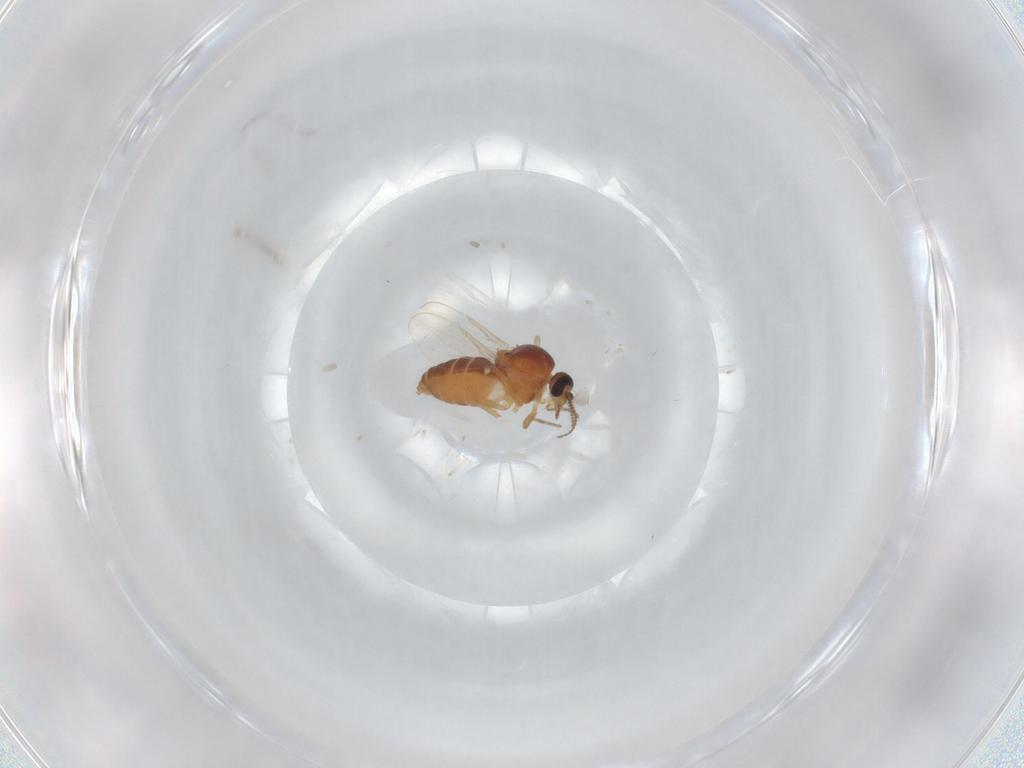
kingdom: Animalia
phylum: Arthropoda
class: Insecta
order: Diptera
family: Ceratopogonidae
